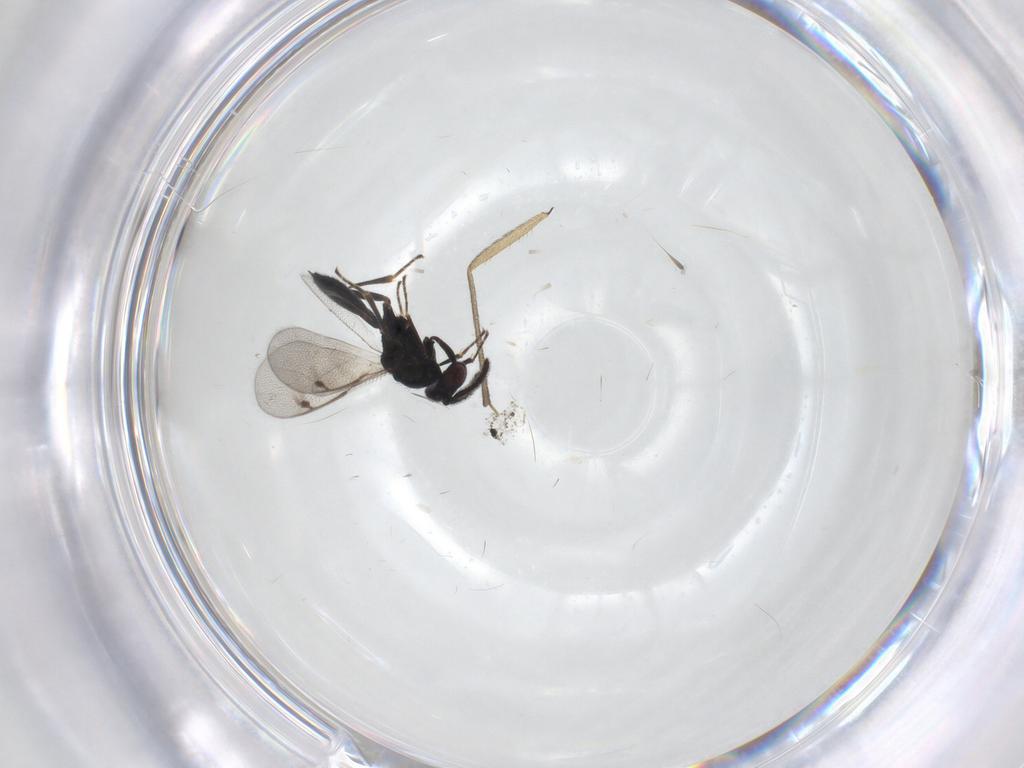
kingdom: Animalia
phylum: Arthropoda
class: Insecta
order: Hymenoptera
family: Pteromalidae
